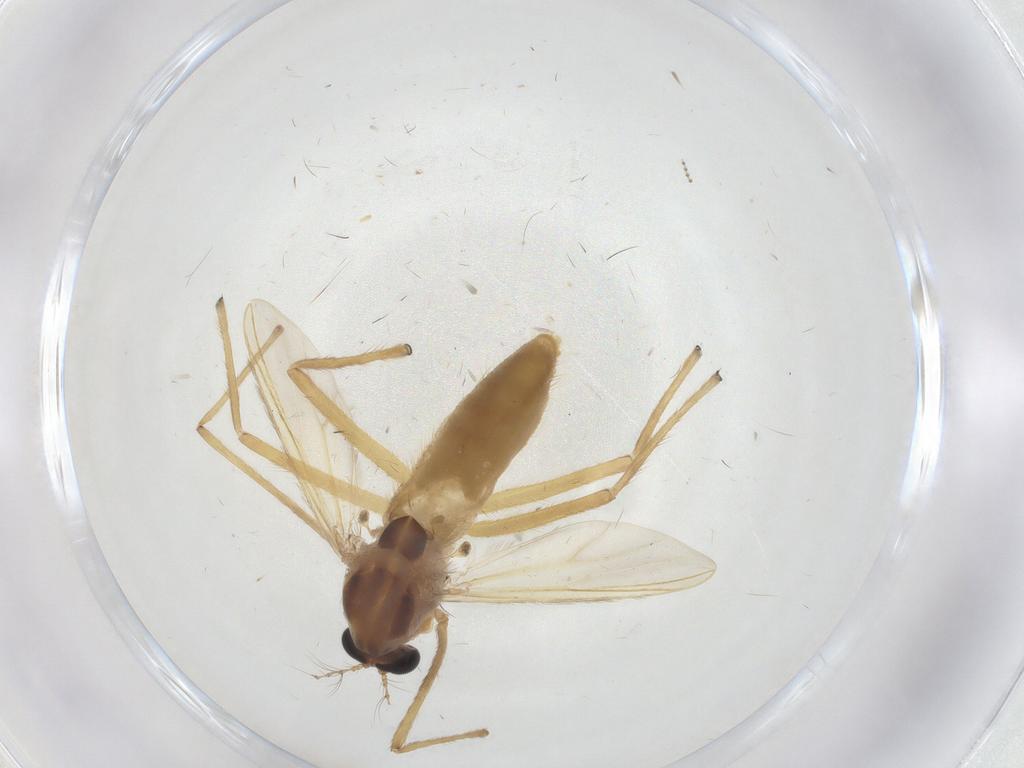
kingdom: Animalia
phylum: Arthropoda
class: Insecta
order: Diptera
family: Chironomidae
